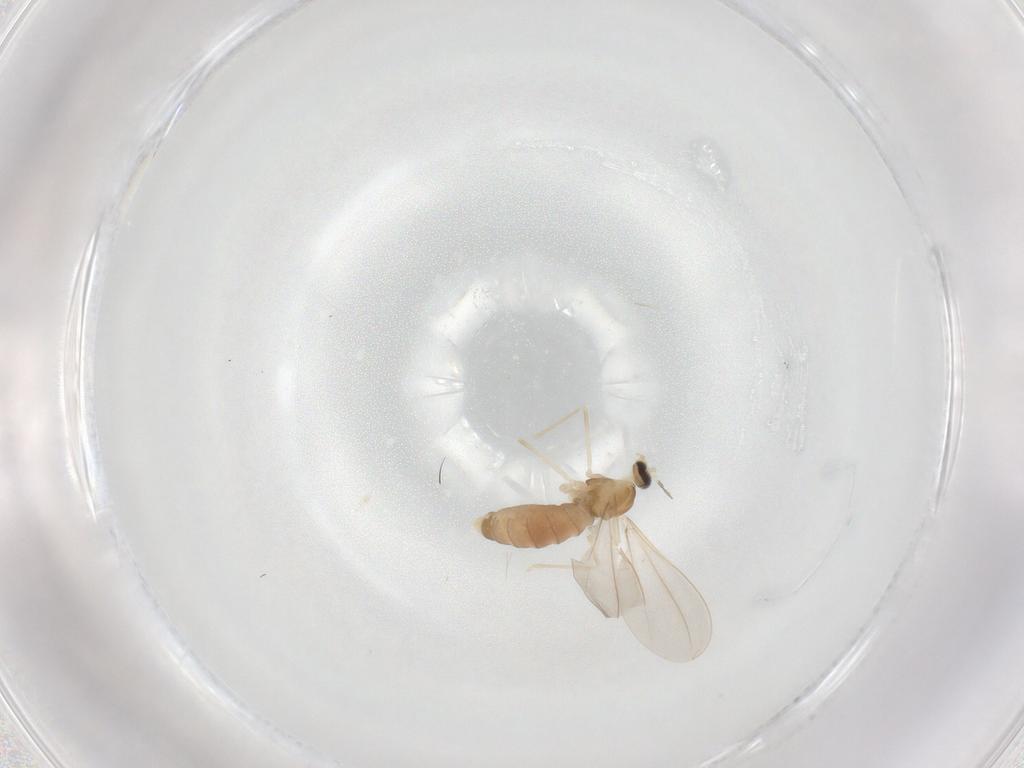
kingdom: Animalia
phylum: Arthropoda
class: Insecta
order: Diptera
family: Cecidomyiidae
